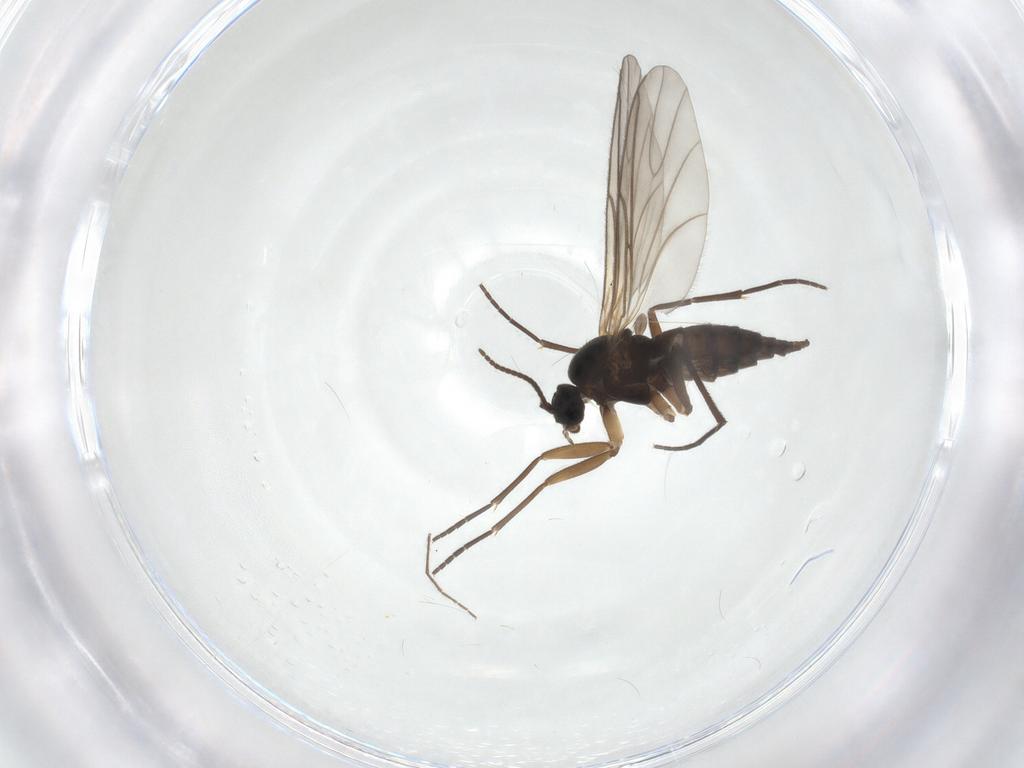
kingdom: Animalia
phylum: Arthropoda
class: Insecta
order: Diptera
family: Sciaridae
